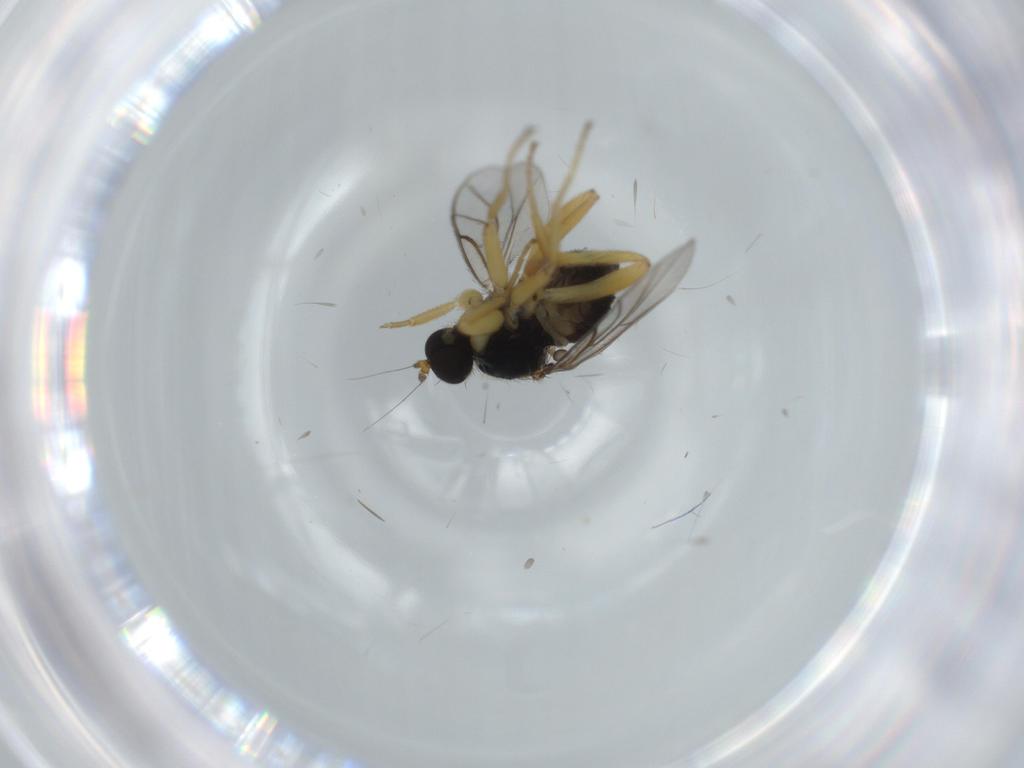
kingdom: Animalia
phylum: Arthropoda
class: Insecta
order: Diptera
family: Hybotidae
